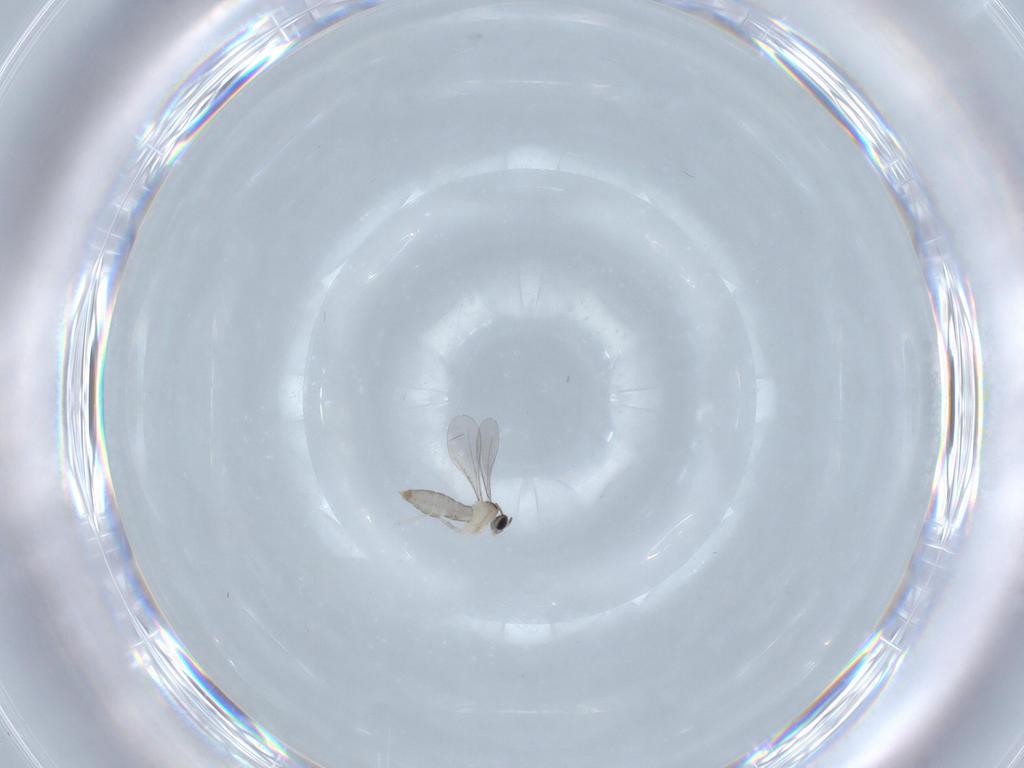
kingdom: Animalia
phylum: Arthropoda
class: Insecta
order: Diptera
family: Cecidomyiidae
